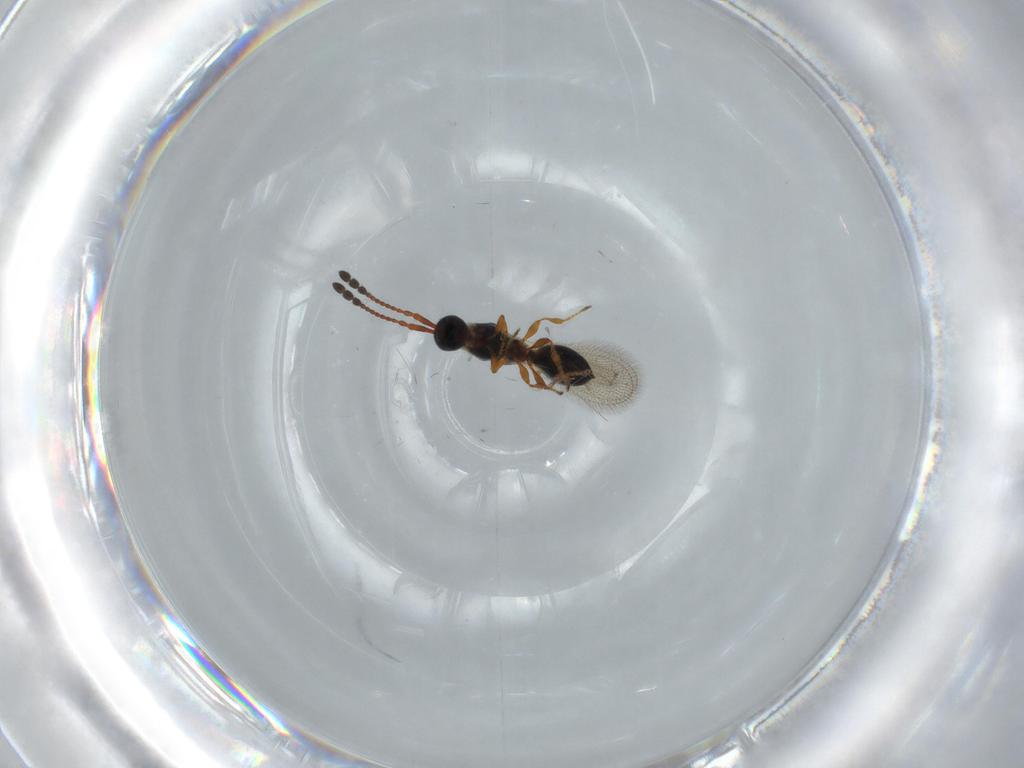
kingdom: Animalia
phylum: Arthropoda
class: Insecta
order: Hymenoptera
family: Diapriidae
